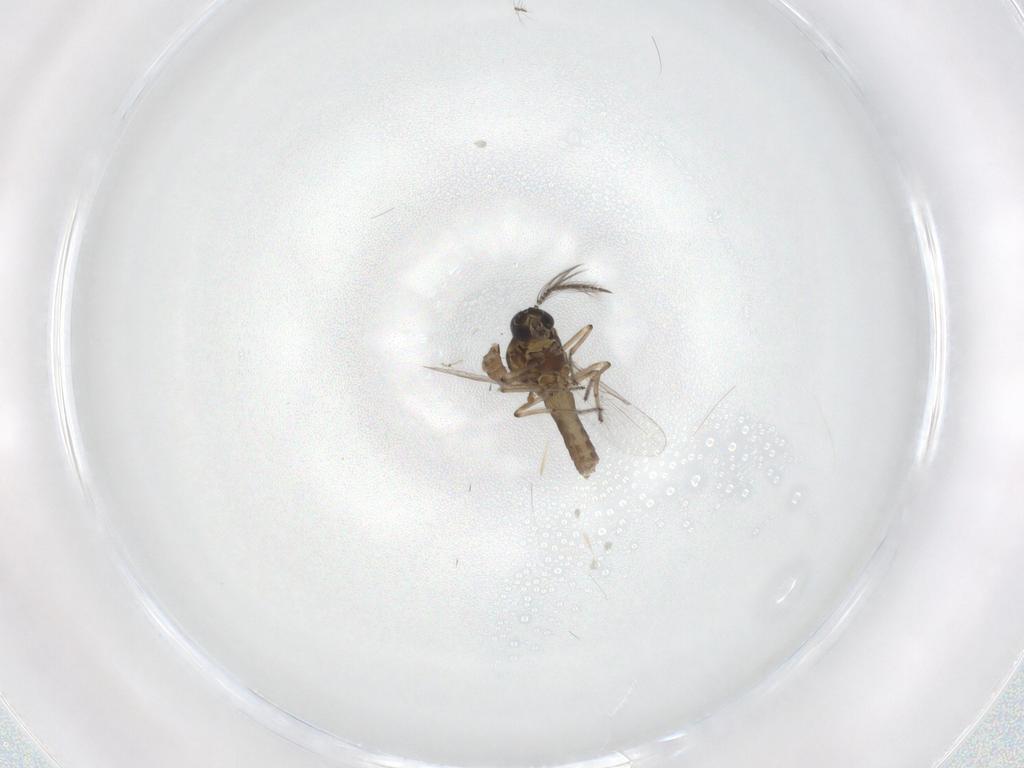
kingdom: Animalia
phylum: Arthropoda
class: Insecta
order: Diptera
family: Ceratopogonidae
